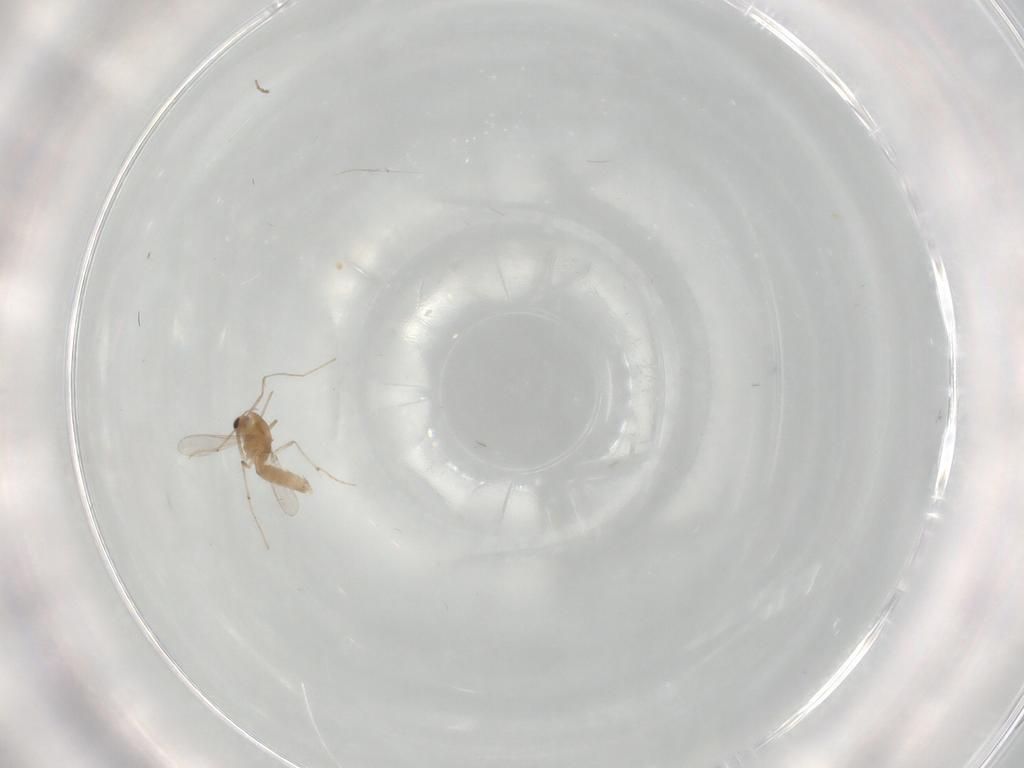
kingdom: Animalia
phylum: Arthropoda
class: Insecta
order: Diptera
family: Chironomidae
